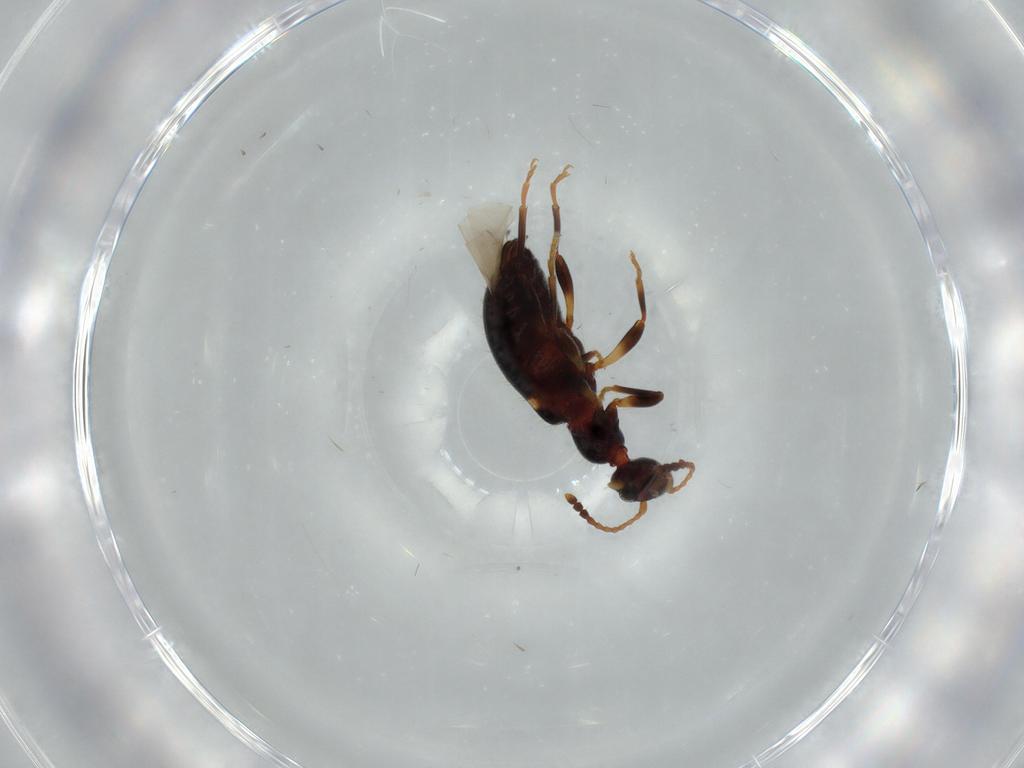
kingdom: Animalia
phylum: Arthropoda
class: Insecta
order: Coleoptera
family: Anthicidae
